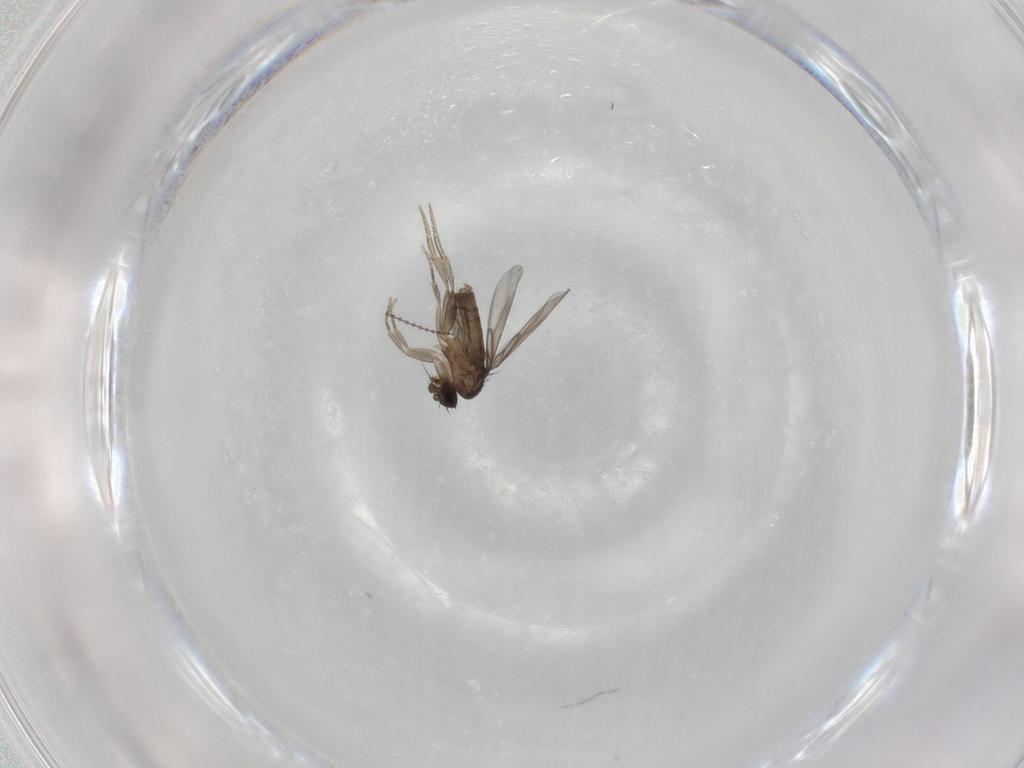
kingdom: Animalia
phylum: Arthropoda
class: Insecta
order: Diptera
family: Phoridae
